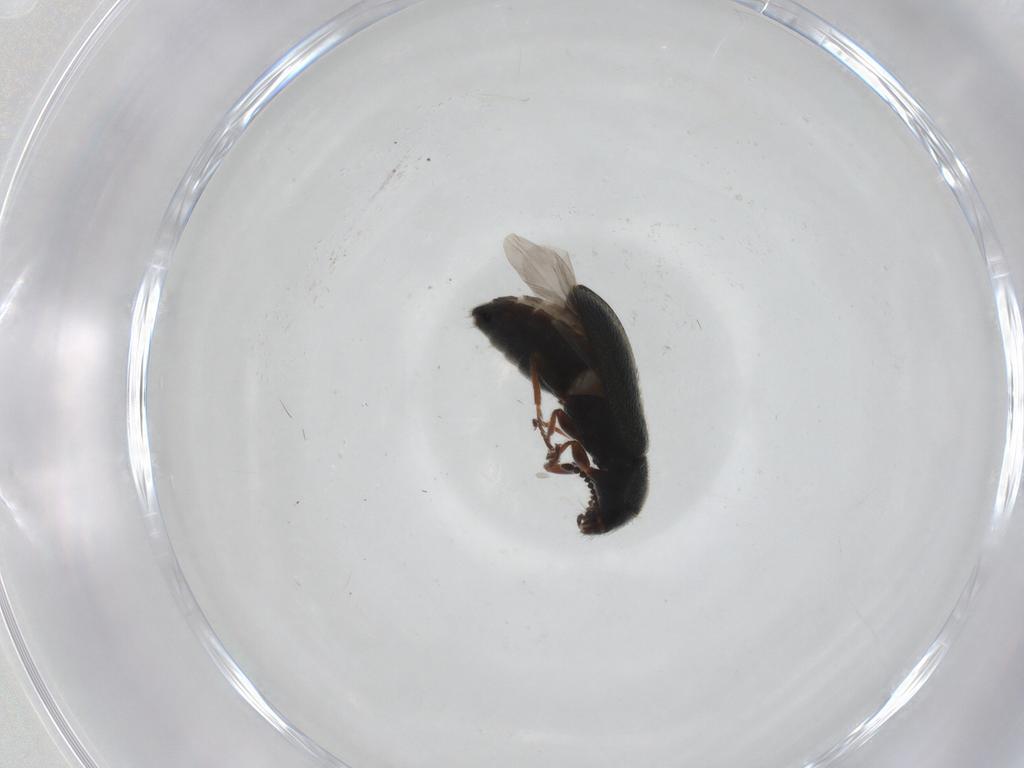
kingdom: Animalia
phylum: Arthropoda
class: Insecta
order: Coleoptera
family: Melyridae
